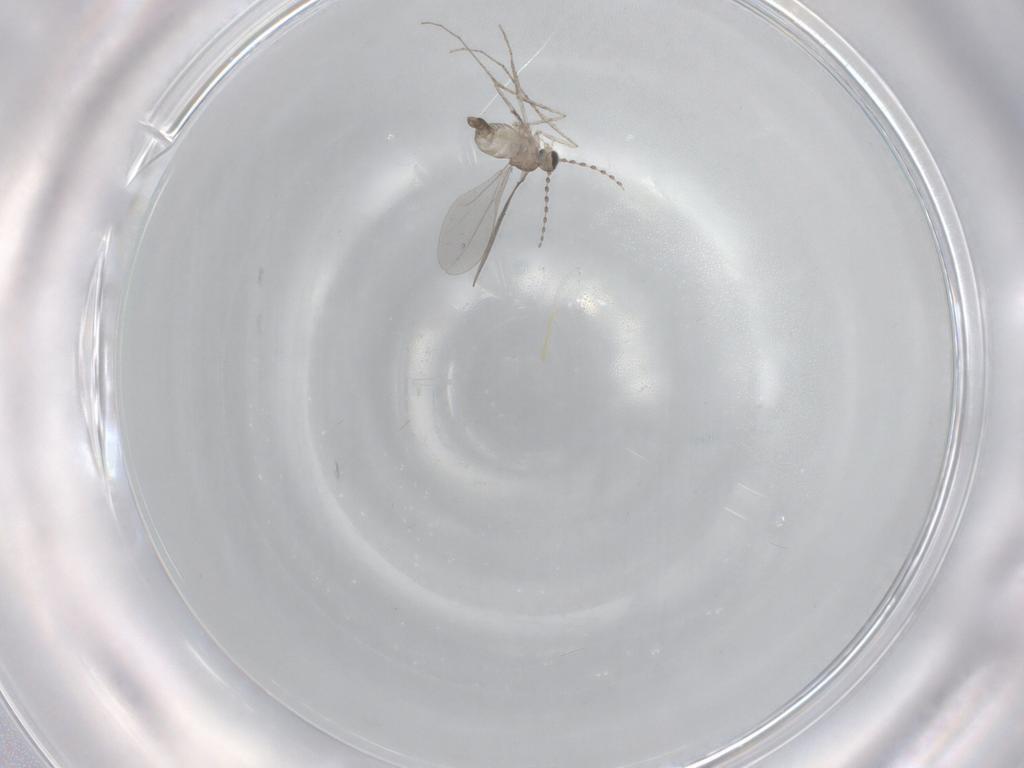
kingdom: Animalia
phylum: Arthropoda
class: Insecta
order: Diptera
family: Cecidomyiidae
